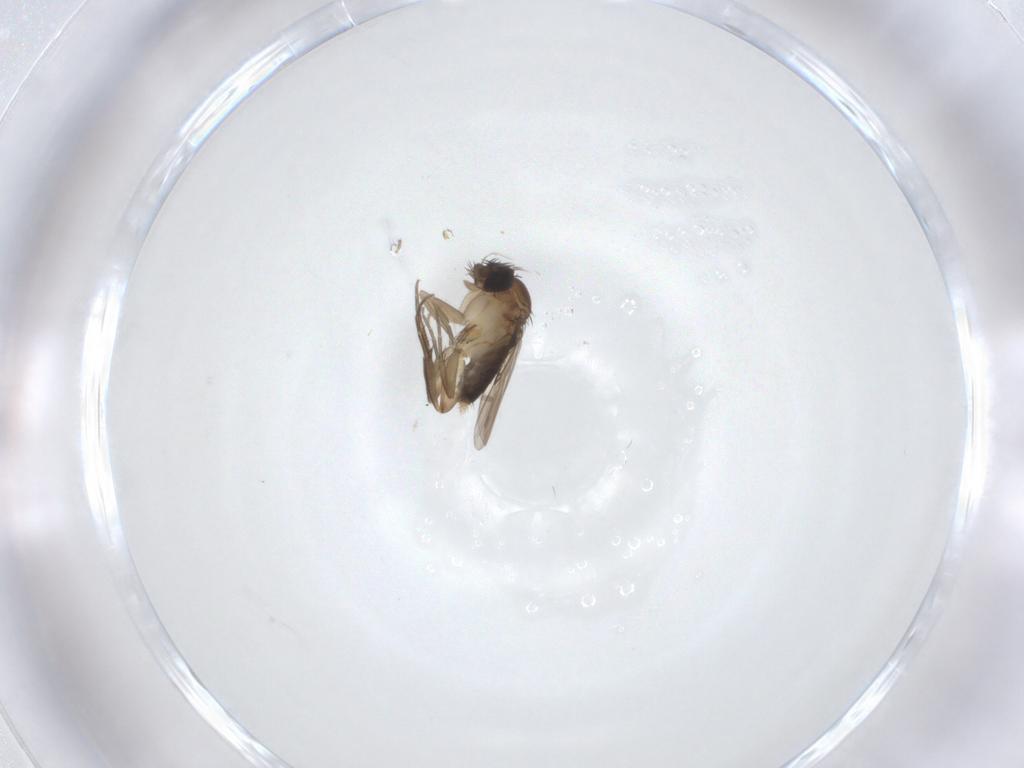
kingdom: Animalia
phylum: Arthropoda
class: Insecta
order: Diptera
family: Phoridae
